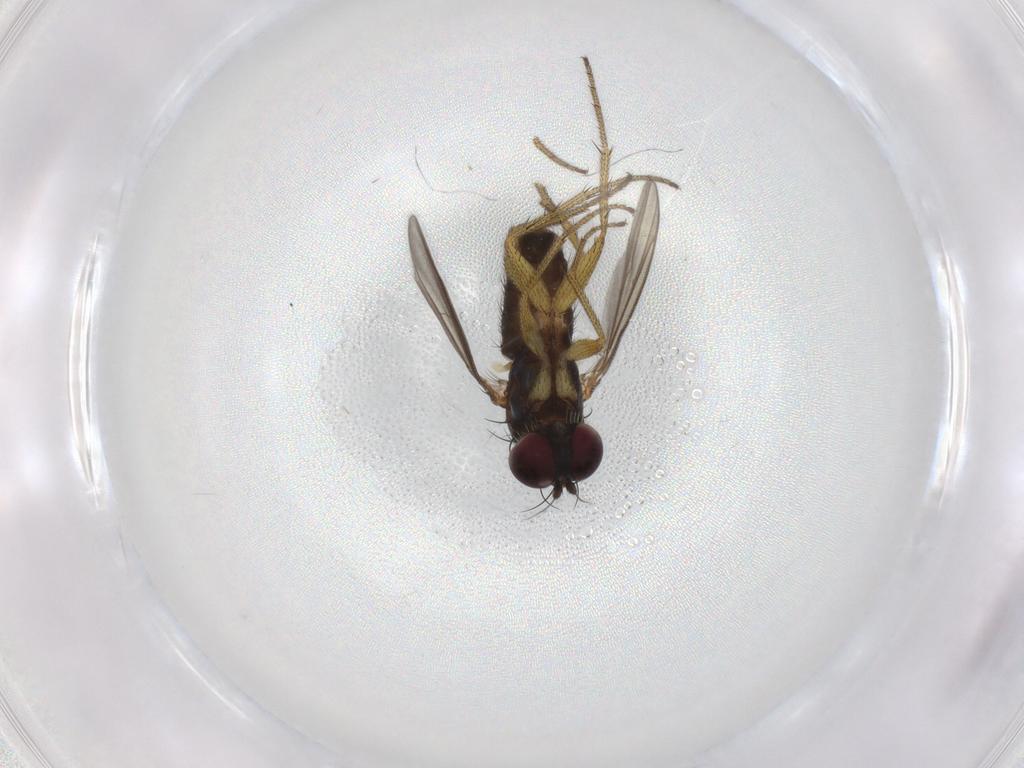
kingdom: Animalia
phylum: Arthropoda
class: Insecta
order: Diptera
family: Dolichopodidae
